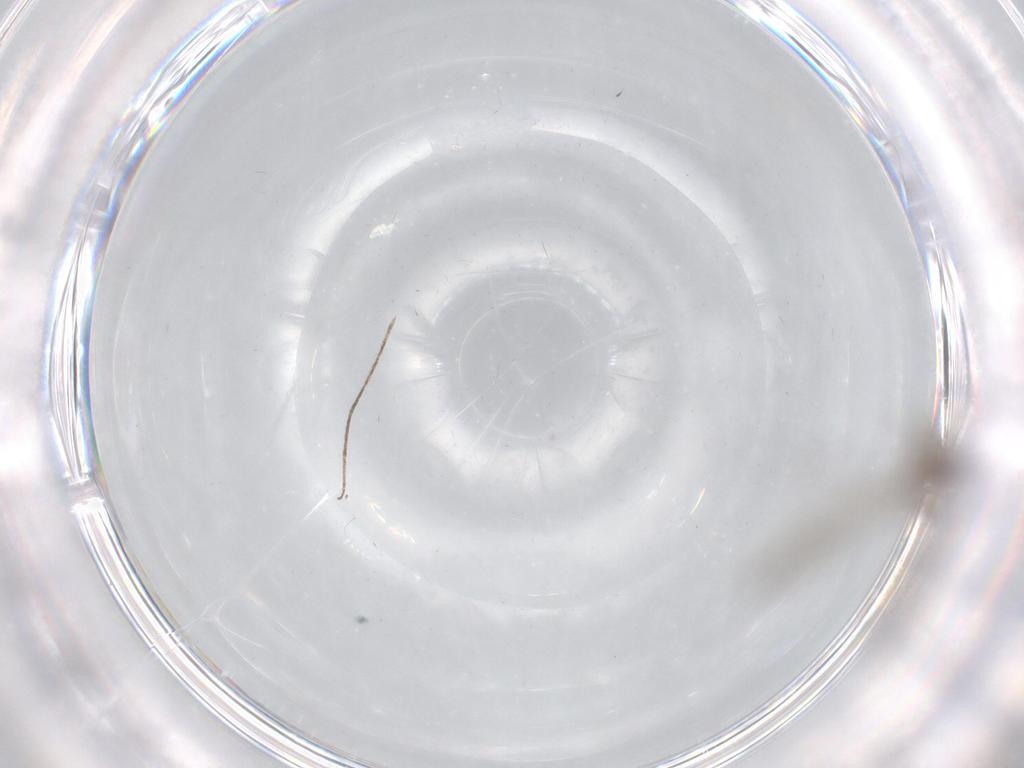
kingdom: Animalia
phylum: Arthropoda
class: Insecta
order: Diptera
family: Cecidomyiidae
